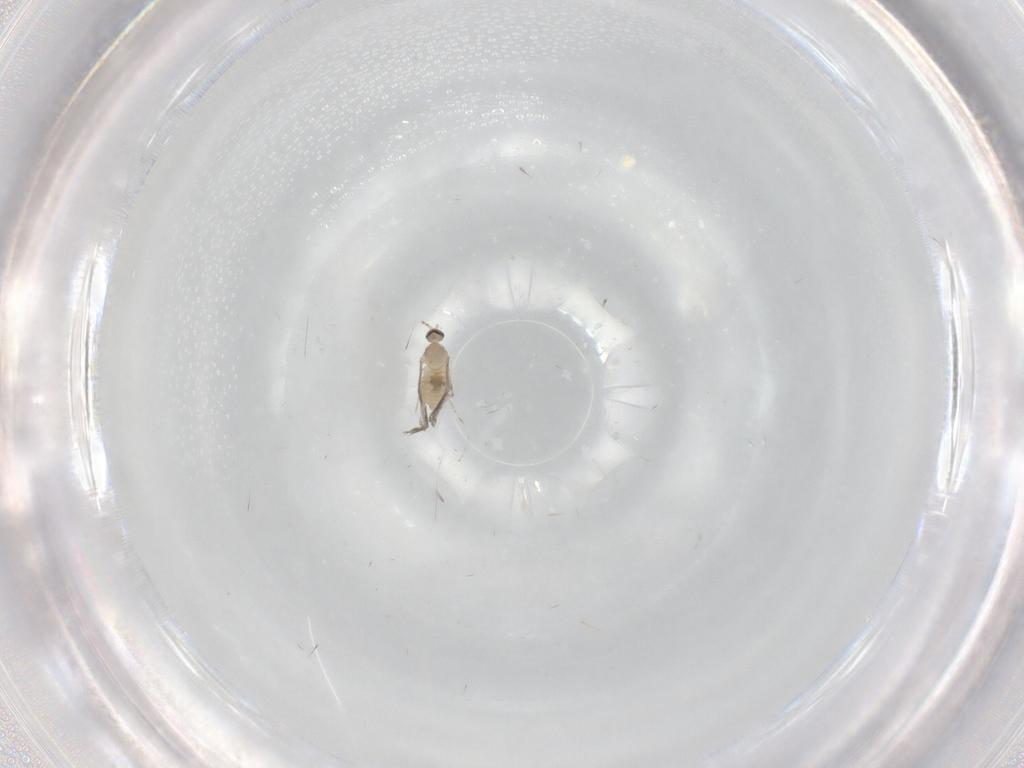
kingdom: Animalia
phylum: Arthropoda
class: Insecta
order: Diptera
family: Cecidomyiidae
